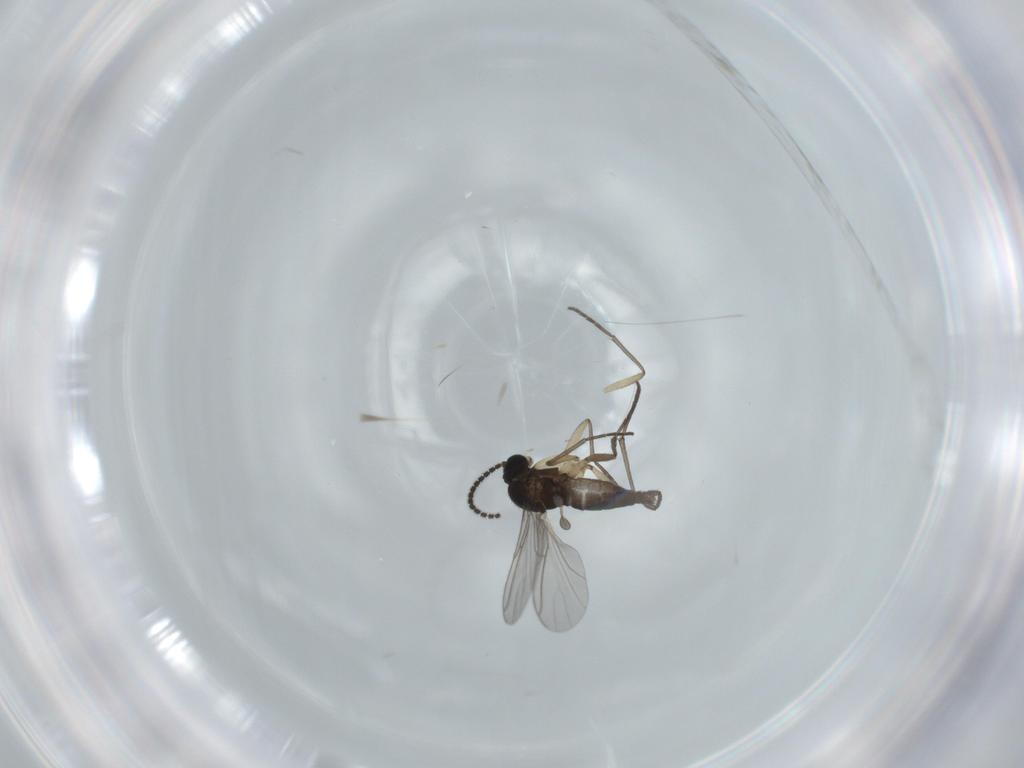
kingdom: Animalia
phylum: Arthropoda
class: Insecta
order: Diptera
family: Sciaridae
